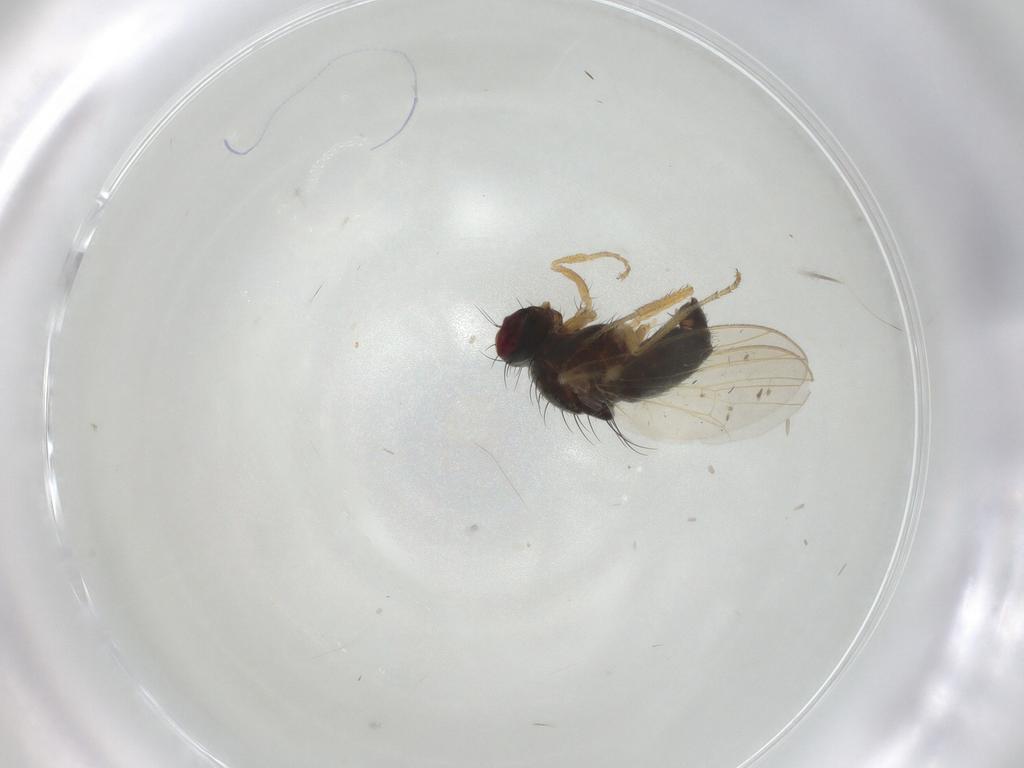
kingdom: Animalia
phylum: Arthropoda
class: Insecta
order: Diptera
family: Heleomyzidae
